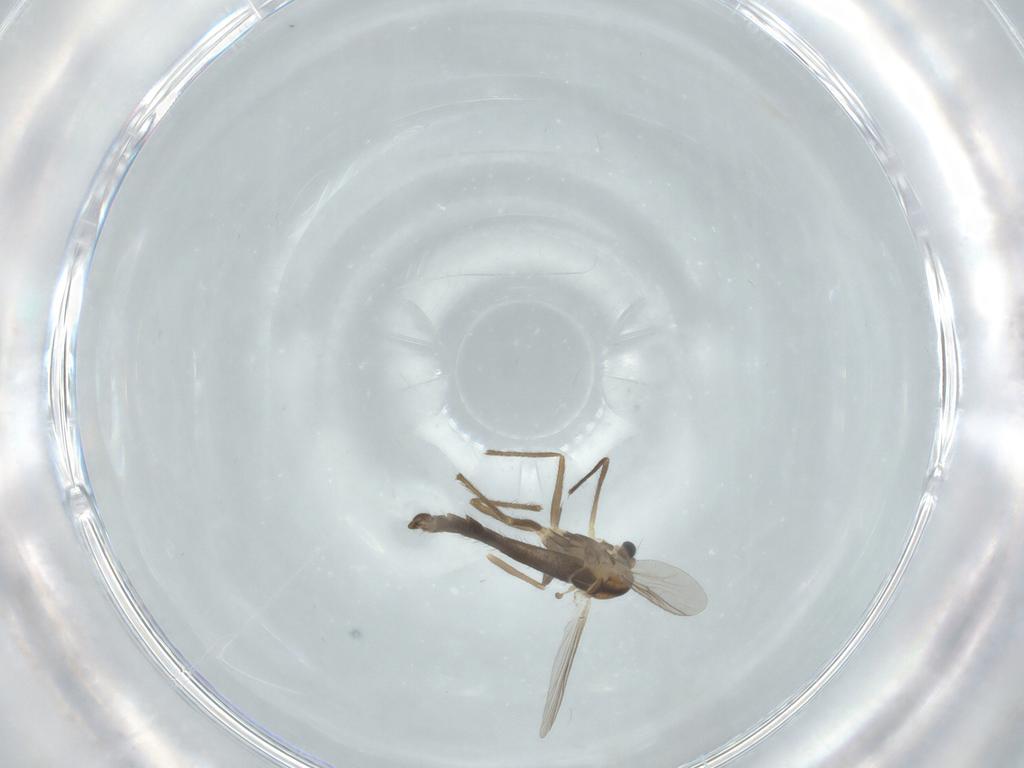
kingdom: Animalia
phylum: Arthropoda
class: Insecta
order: Diptera
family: Chironomidae
